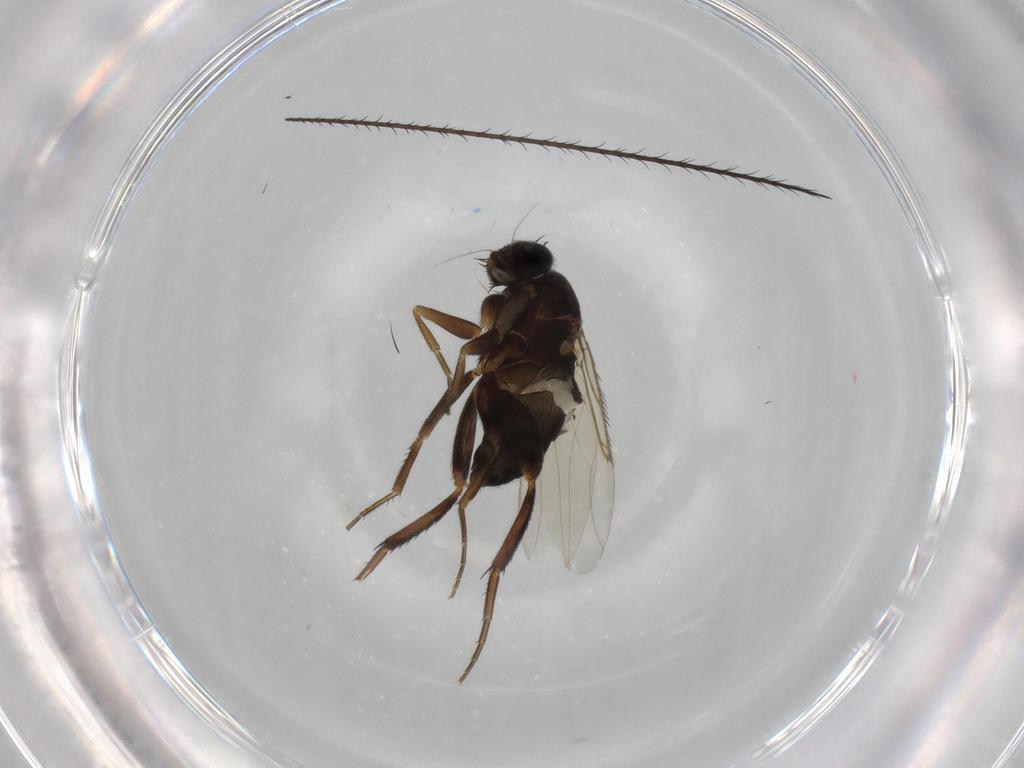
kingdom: Animalia
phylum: Arthropoda
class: Insecta
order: Diptera
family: Phoridae
